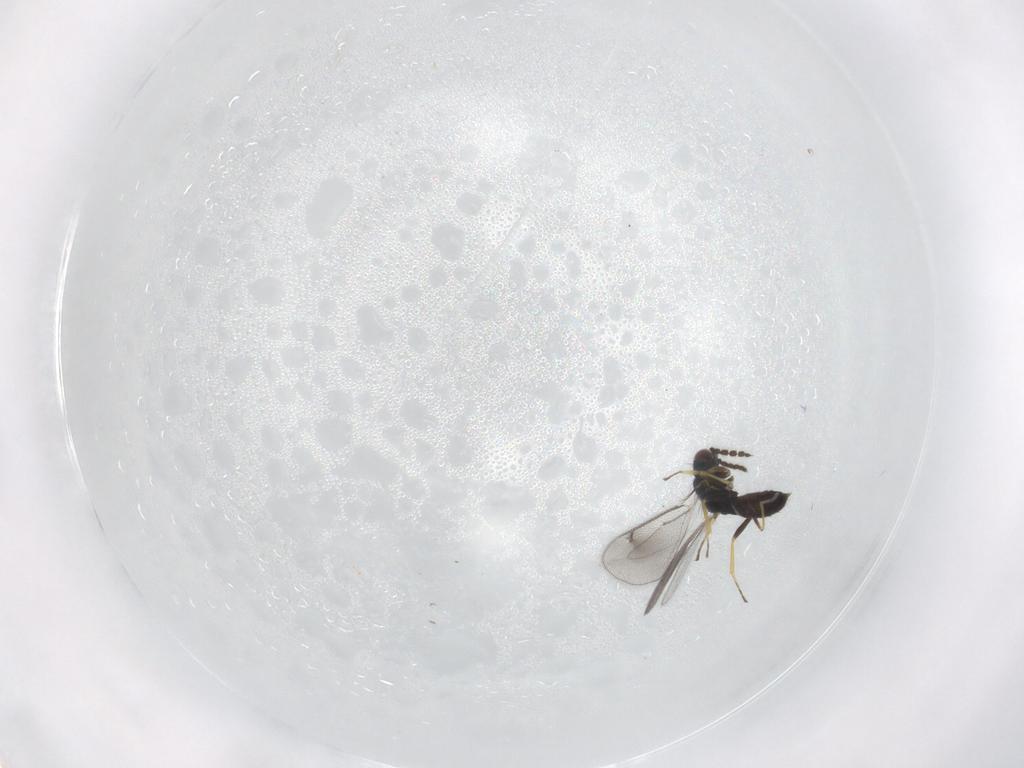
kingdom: Animalia
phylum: Arthropoda
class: Insecta
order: Hymenoptera
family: Eulophidae
